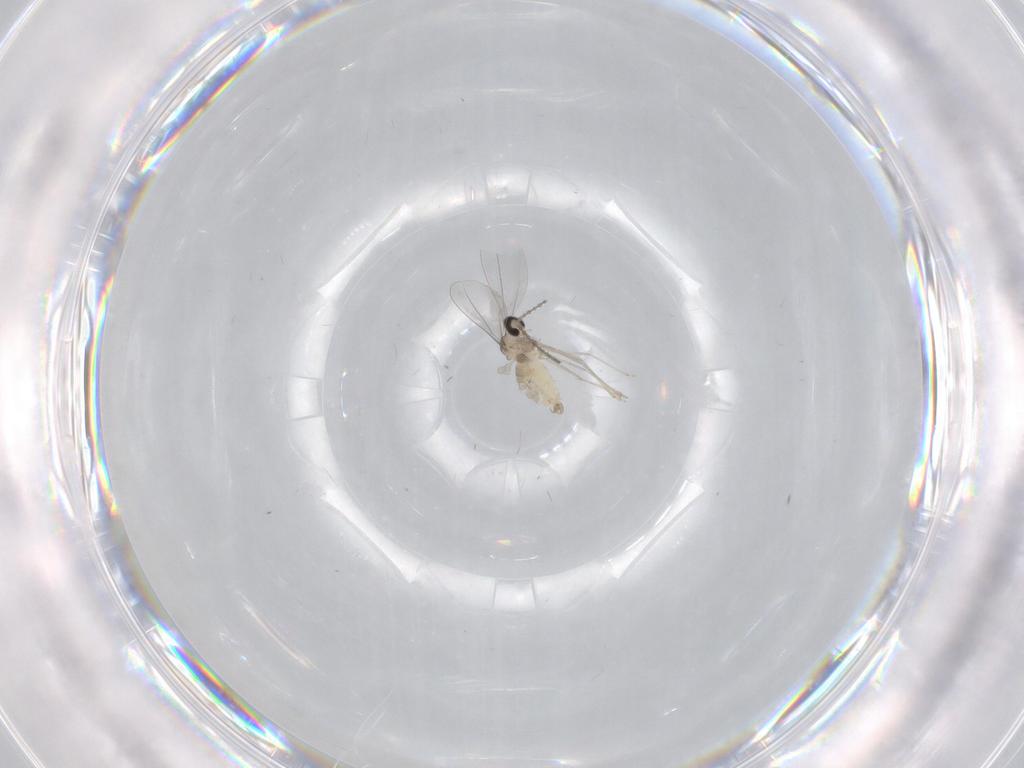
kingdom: Animalia
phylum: Arthropoda
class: Insecta
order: Diptera
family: Cecidomyiidae
